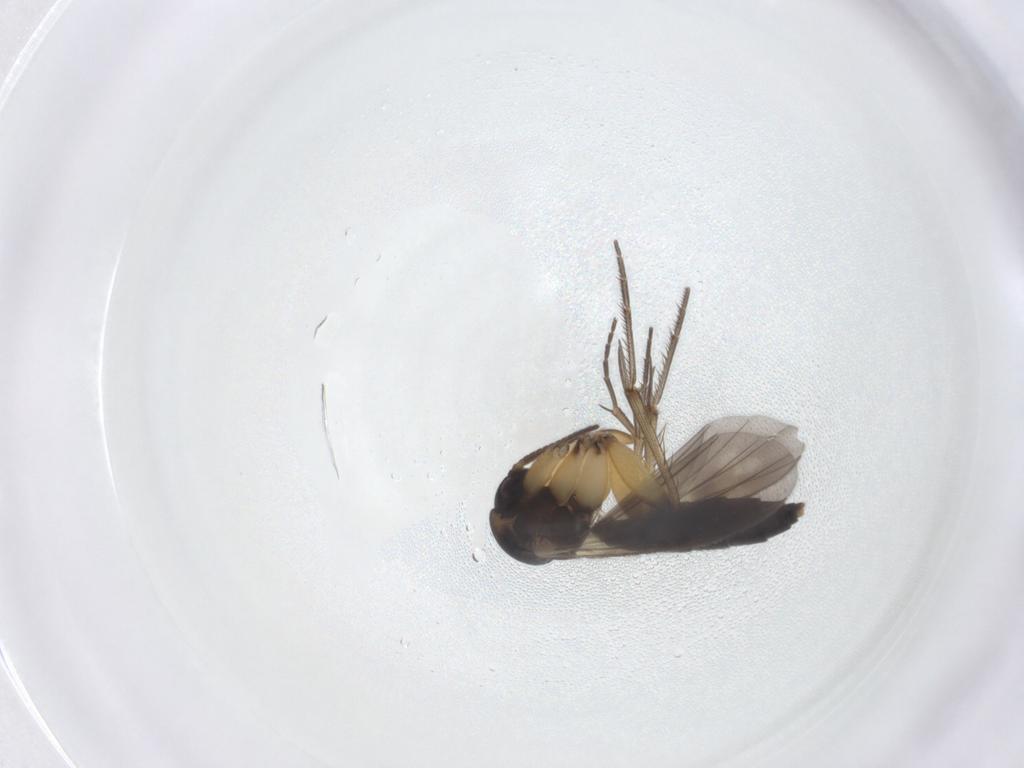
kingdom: Animalia
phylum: Arthropoda
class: Insecta
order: Diptera
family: Mycetophilidae
